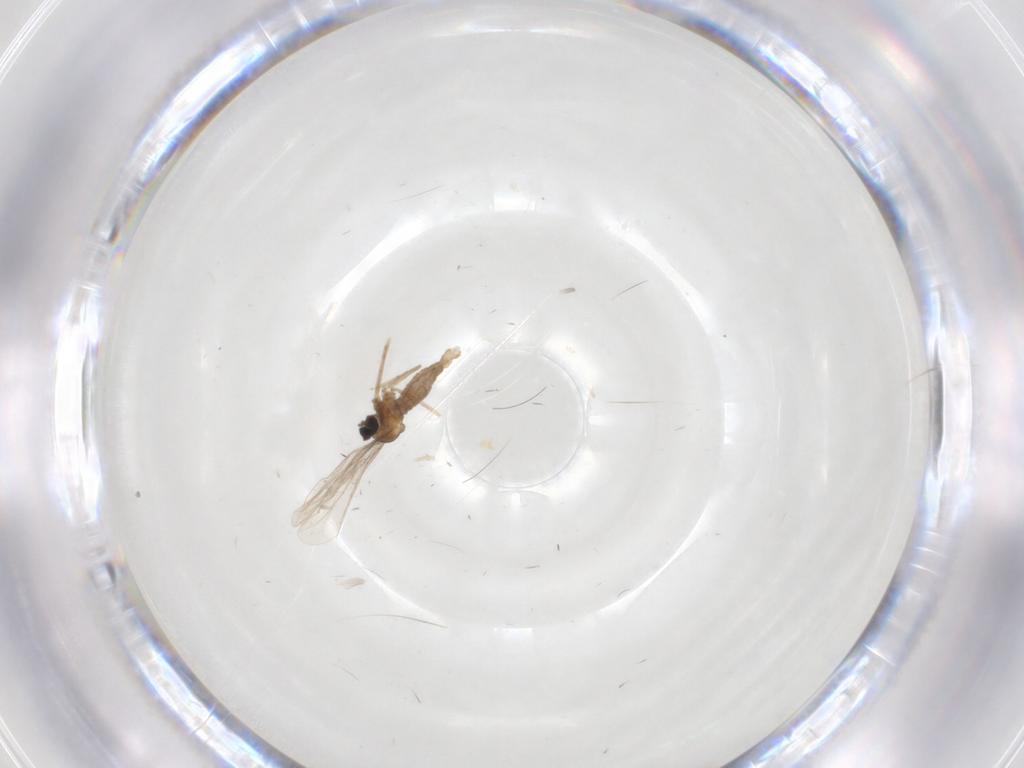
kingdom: Animalia
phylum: Arthropoda
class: Insecta
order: Diptera
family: Cecidomyiidae
